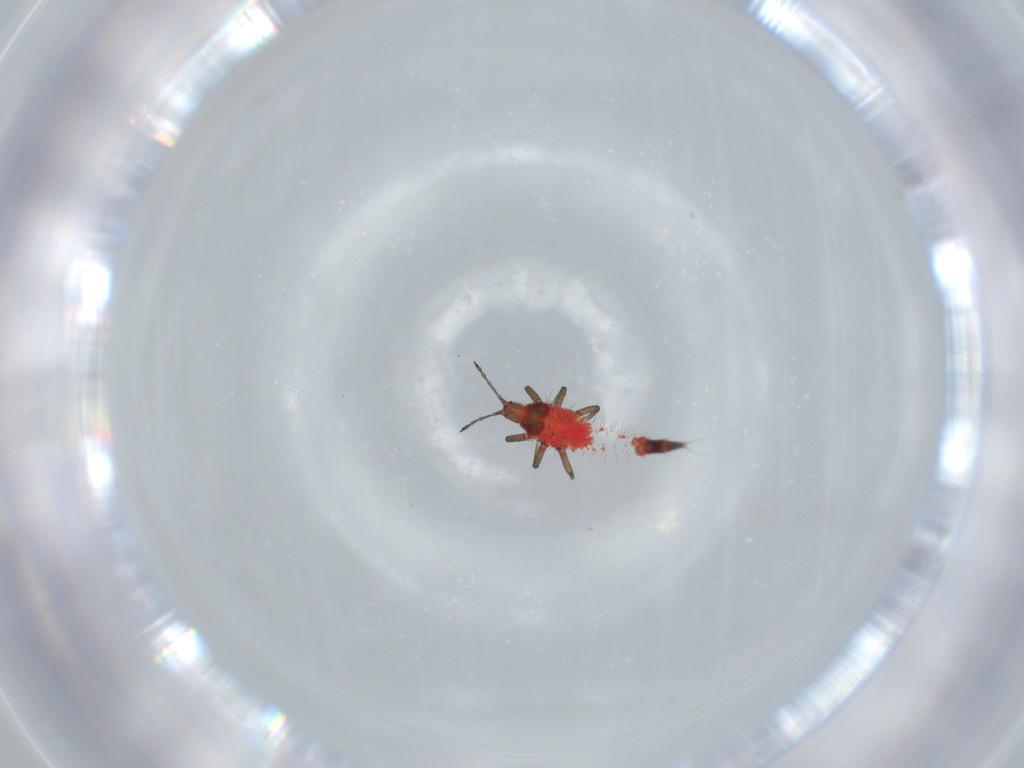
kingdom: Animalia
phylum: Arthropoda
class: Insecta
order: Thysanoptera
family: Phlaeothripidae
